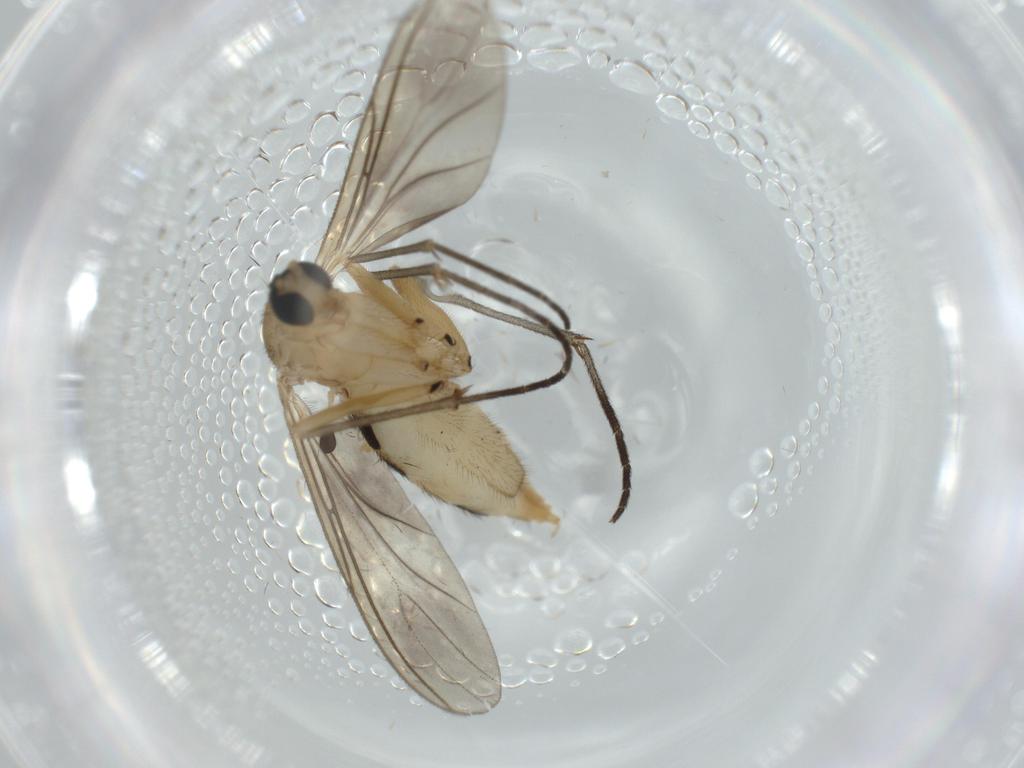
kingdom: Animalia
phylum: Arthropoda
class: Insecta
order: Diptera
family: Sciaridae
